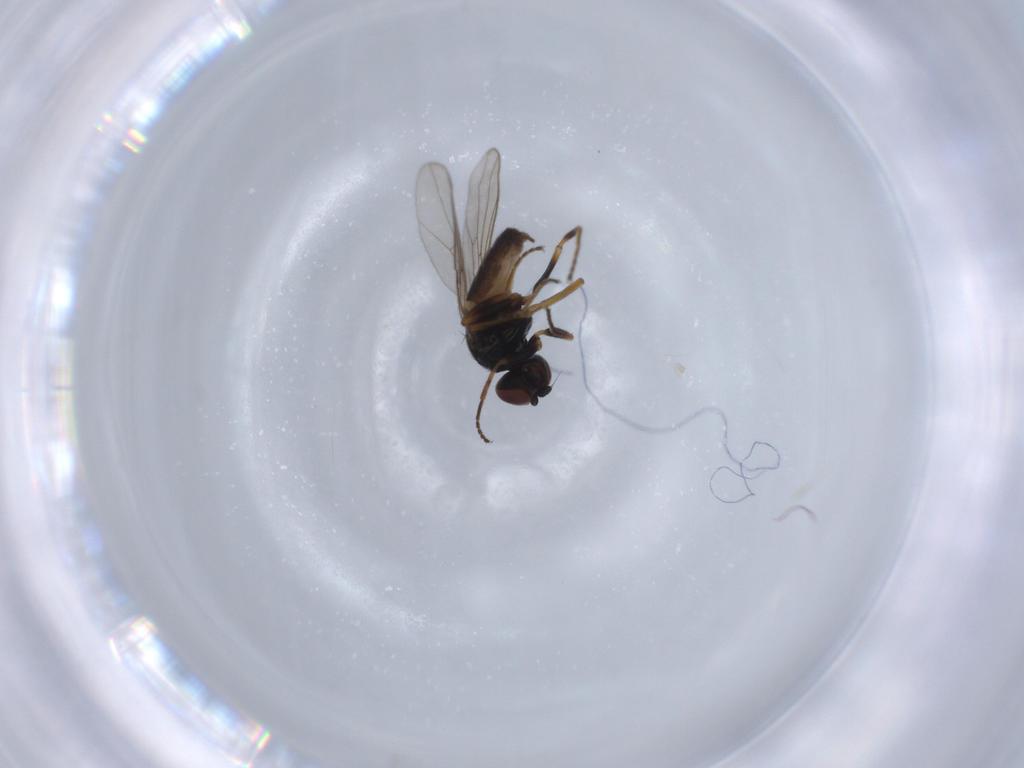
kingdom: Animalia
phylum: Arthropoda
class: Insecta
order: Diptera
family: Chloropidae
